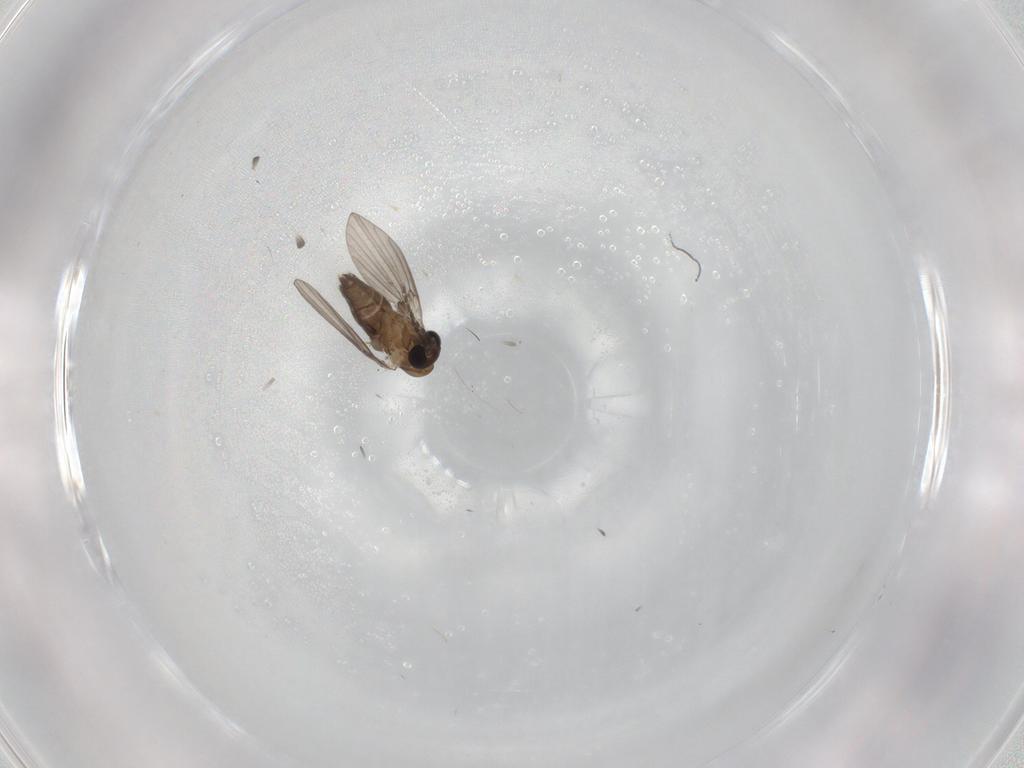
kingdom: Animalia
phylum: Arthropoda
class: Insecta
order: Diptera
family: Psychodidae
